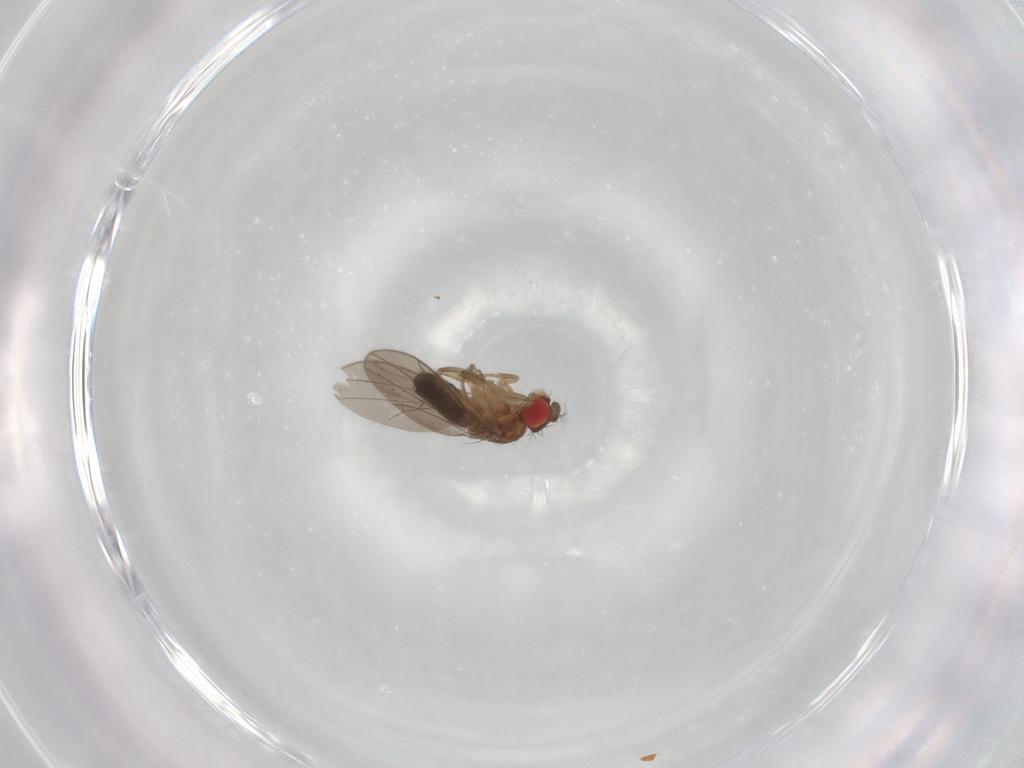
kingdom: Animalia
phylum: Arthropoda
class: Insecta
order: Diptera
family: Drosophilidae
